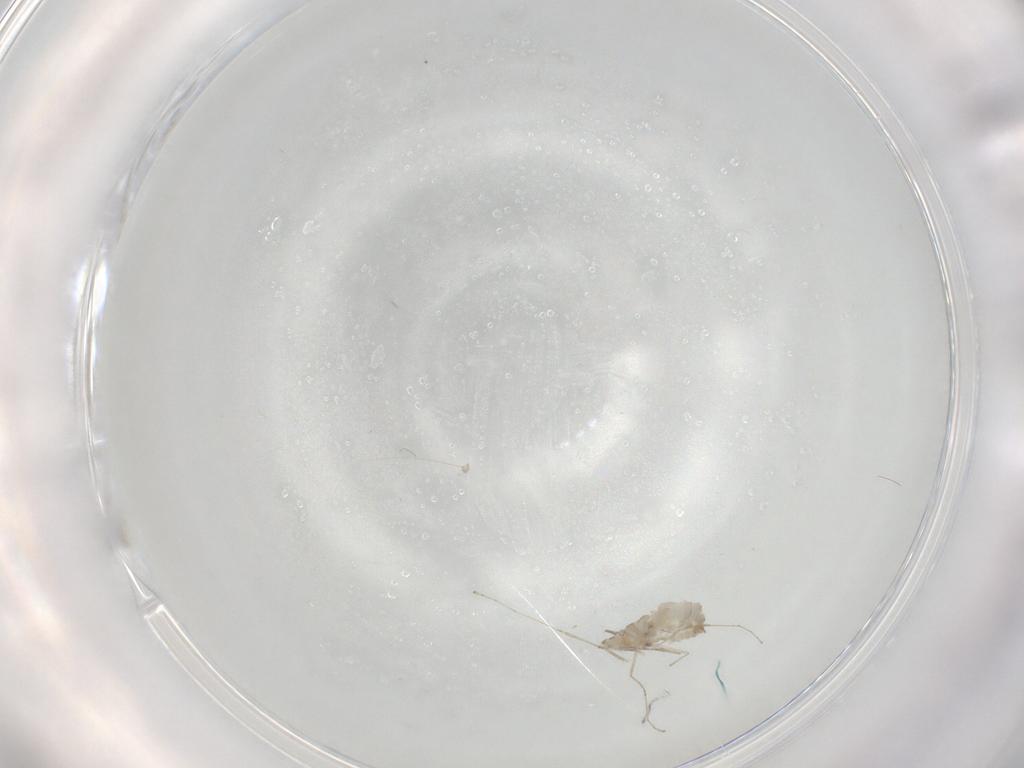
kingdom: Animalia
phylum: Arthropoda
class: Insecta
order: Diptera
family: Cecidomyiidae
